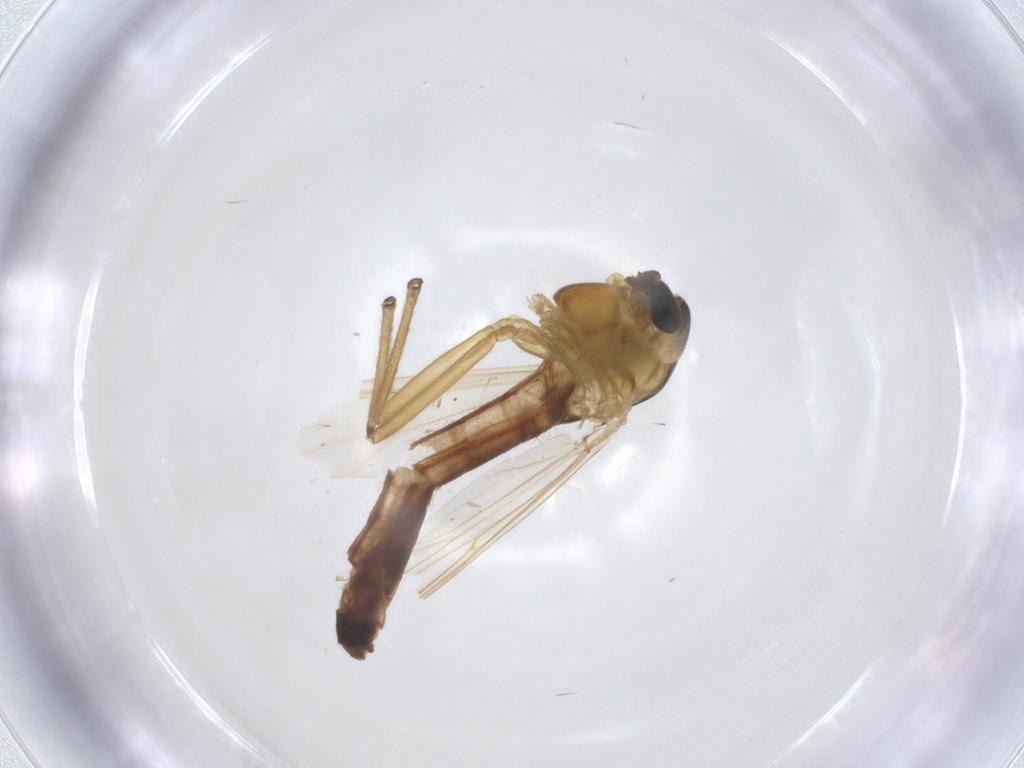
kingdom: Animalia
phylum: Arthropoda
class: Insecta
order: Diptera
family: Chironomidae
